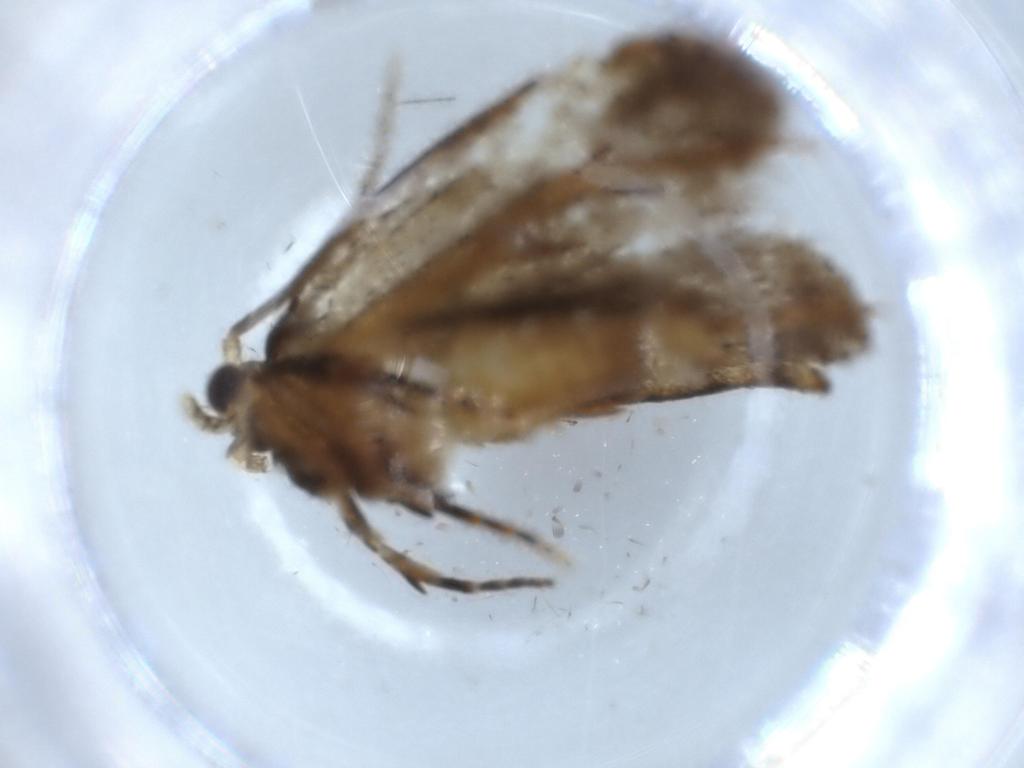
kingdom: Animalia
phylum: Arthropoda
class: Insecta
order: Lepidoptera
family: Tineidae
